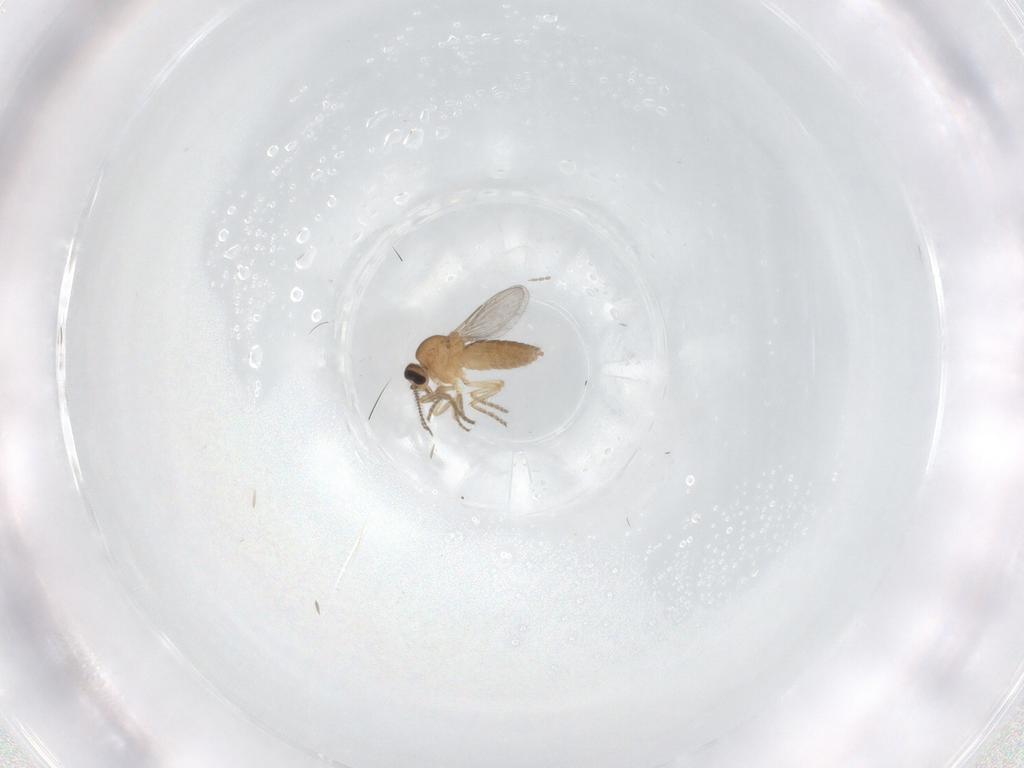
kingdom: Animalia
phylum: Arthropoda
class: Insecta
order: Diptera
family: Ceratopogonidae
